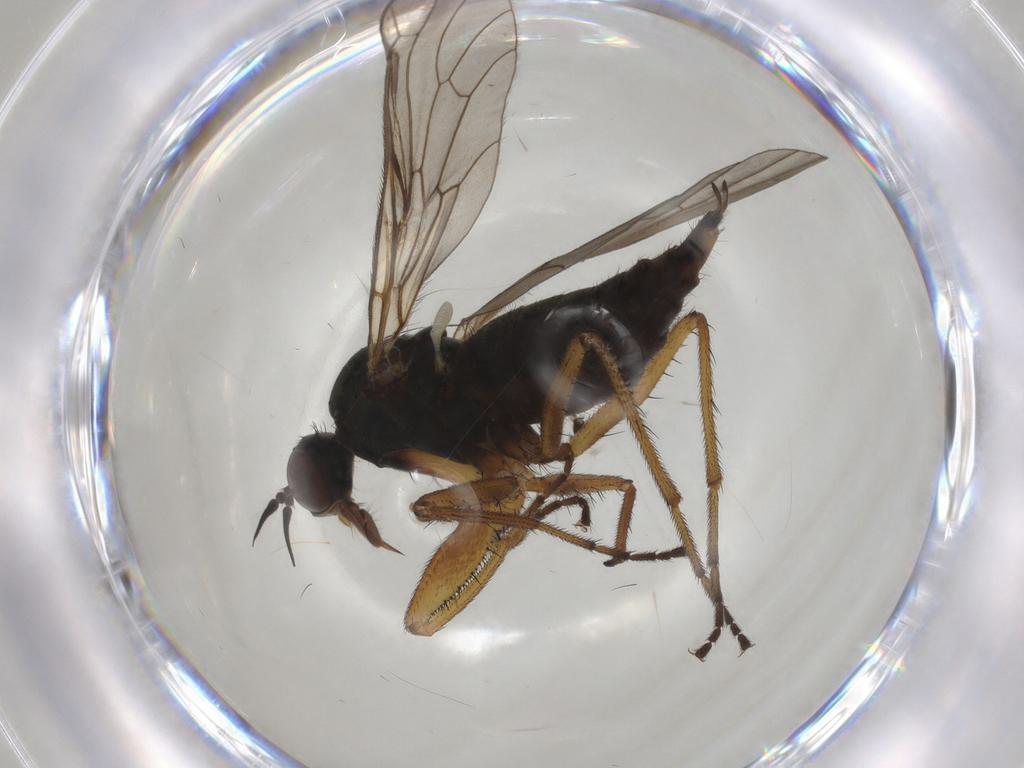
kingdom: Animalia
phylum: Arthropoda
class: Insecta
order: Diptera
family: Empididae
